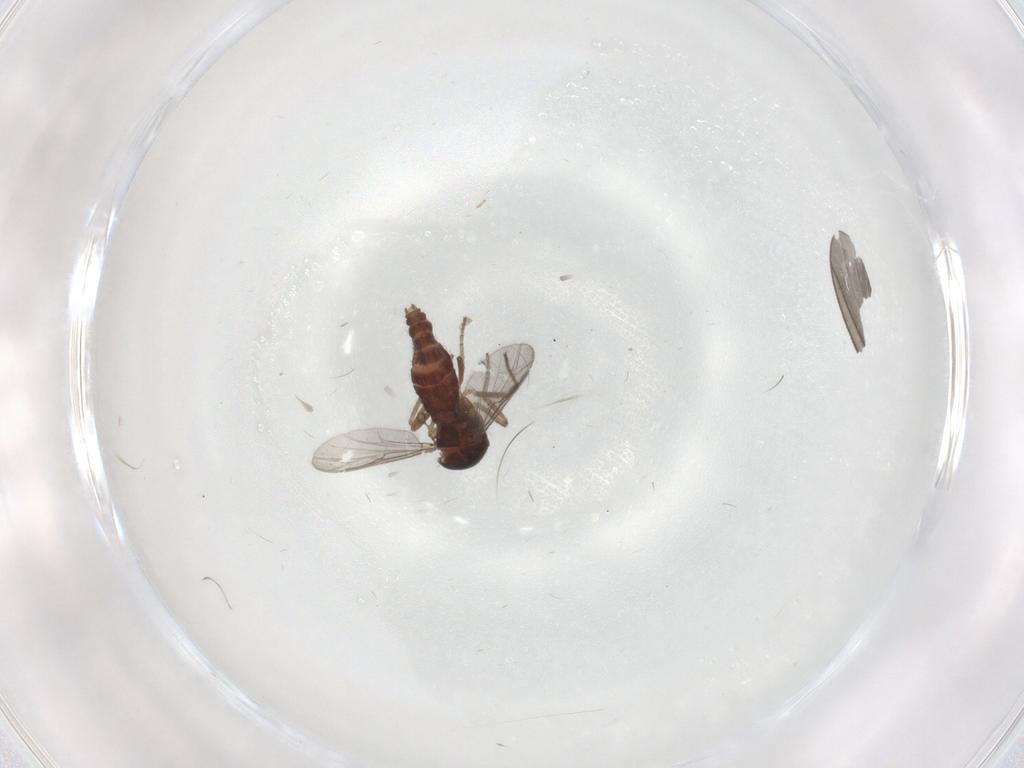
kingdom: Animalia
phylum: Arthropoda
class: Insecta
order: Diptera
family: Ceratopogonidae
